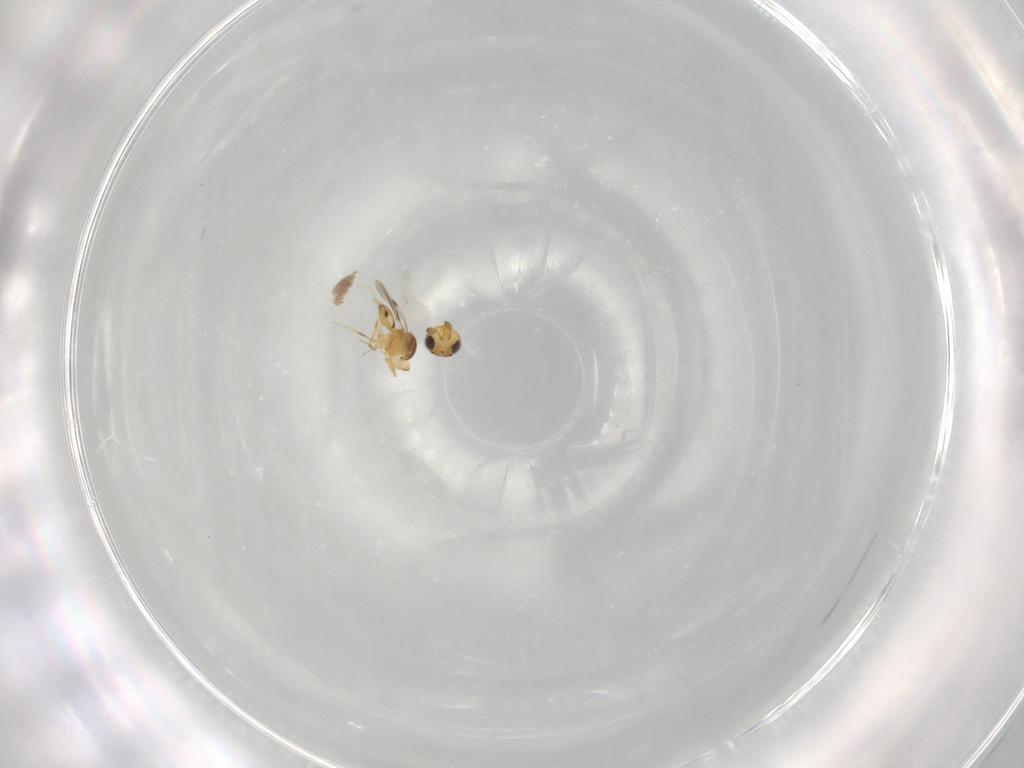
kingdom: Animalia
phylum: Arthropoda
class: Insecta
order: Hymenoptera
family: Scelionidae
